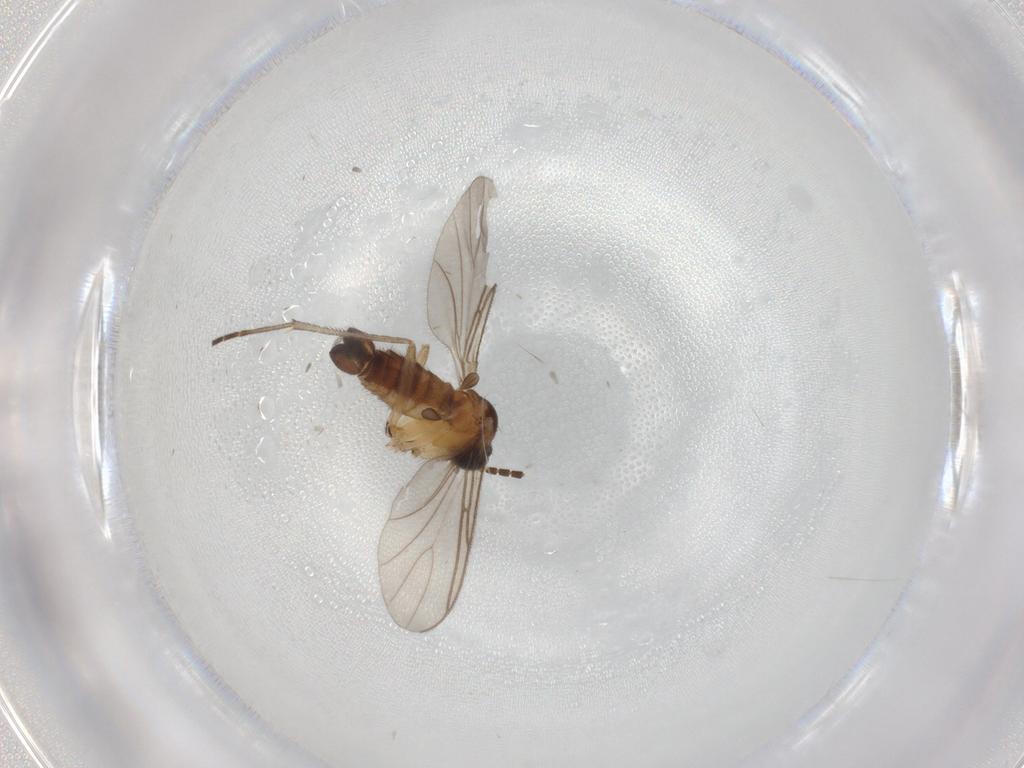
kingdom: Animalia
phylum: Arthropoda
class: Insecta
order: Diptera
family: Sciaridae
